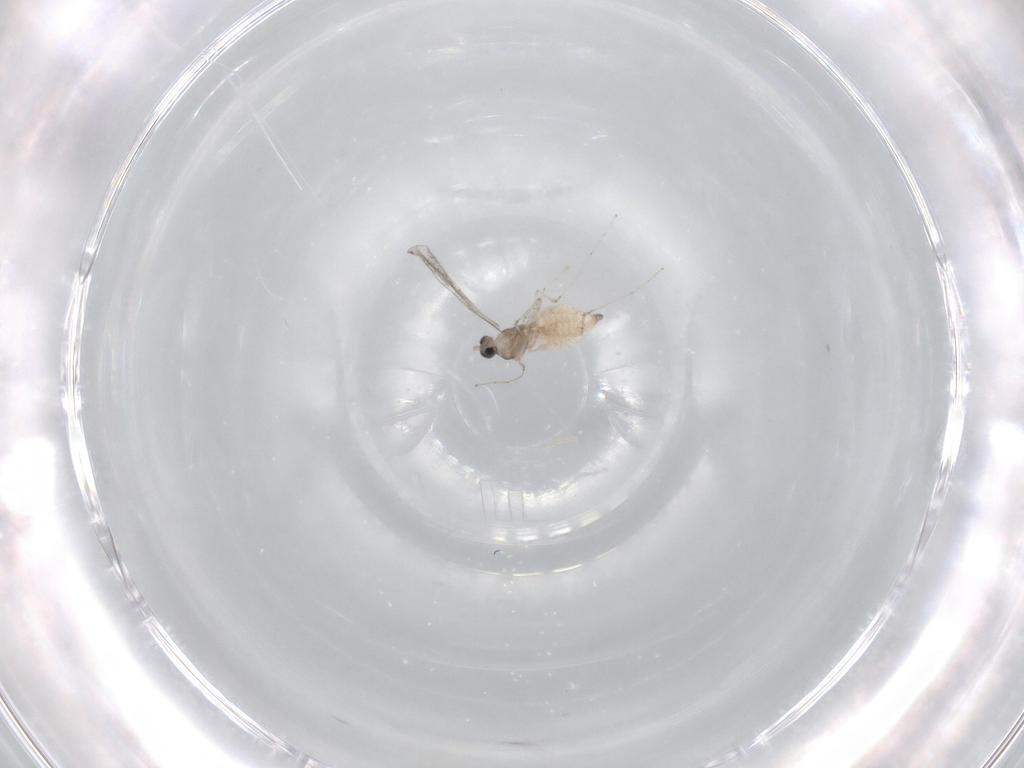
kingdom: Animalia
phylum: Arthropoda
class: Insecta
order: Diptera
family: Cecidomyiidae
